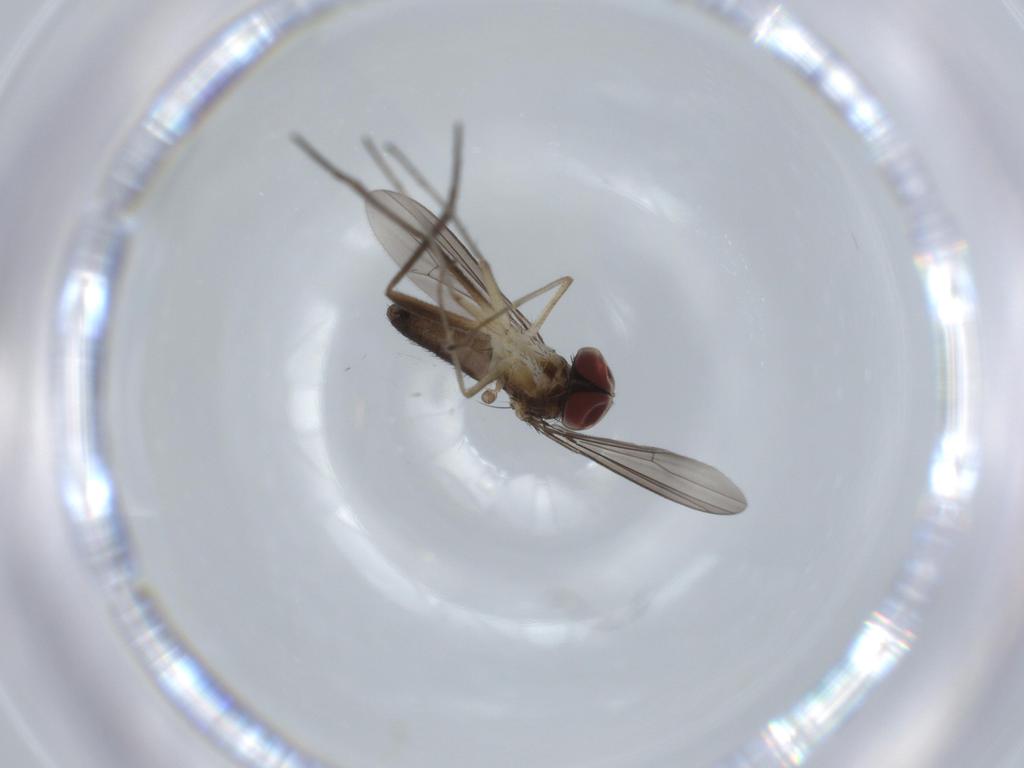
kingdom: Animalia
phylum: Arthropoda
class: Insecta
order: Diptera
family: Dolichopodidae
